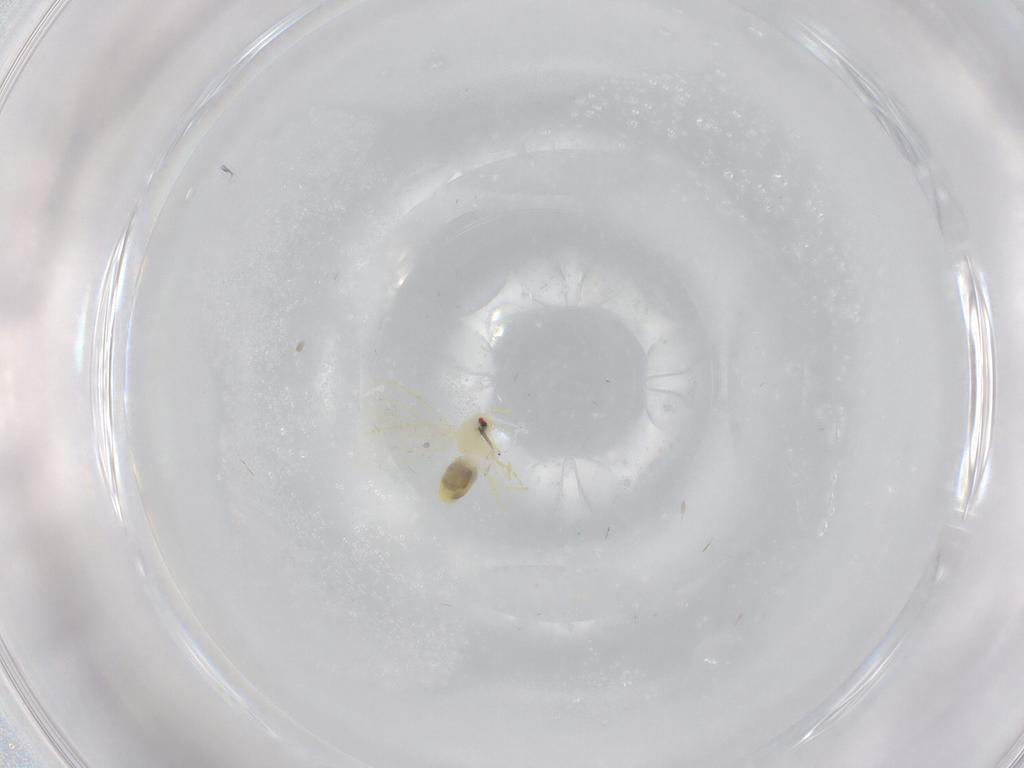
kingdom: Animalia
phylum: Arthropoda
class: Insecta
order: Hemiptera
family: Aleyrodidae
